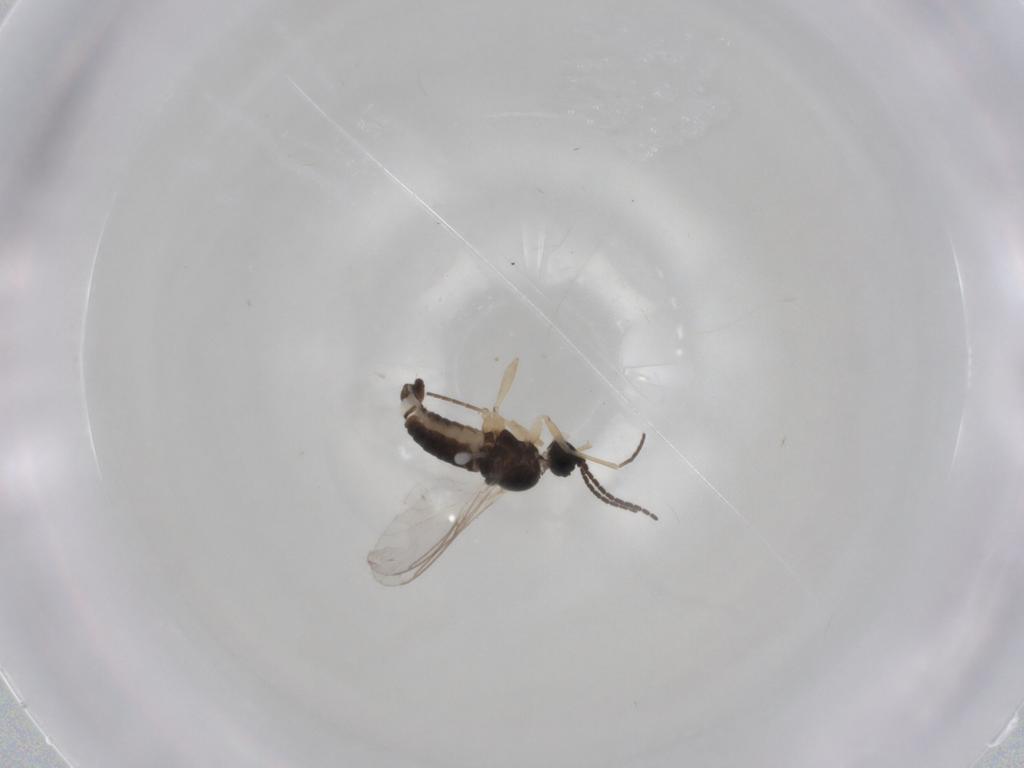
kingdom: Animalia
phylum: Arthropoda
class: Insecta
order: Diptera
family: Sciaridae
